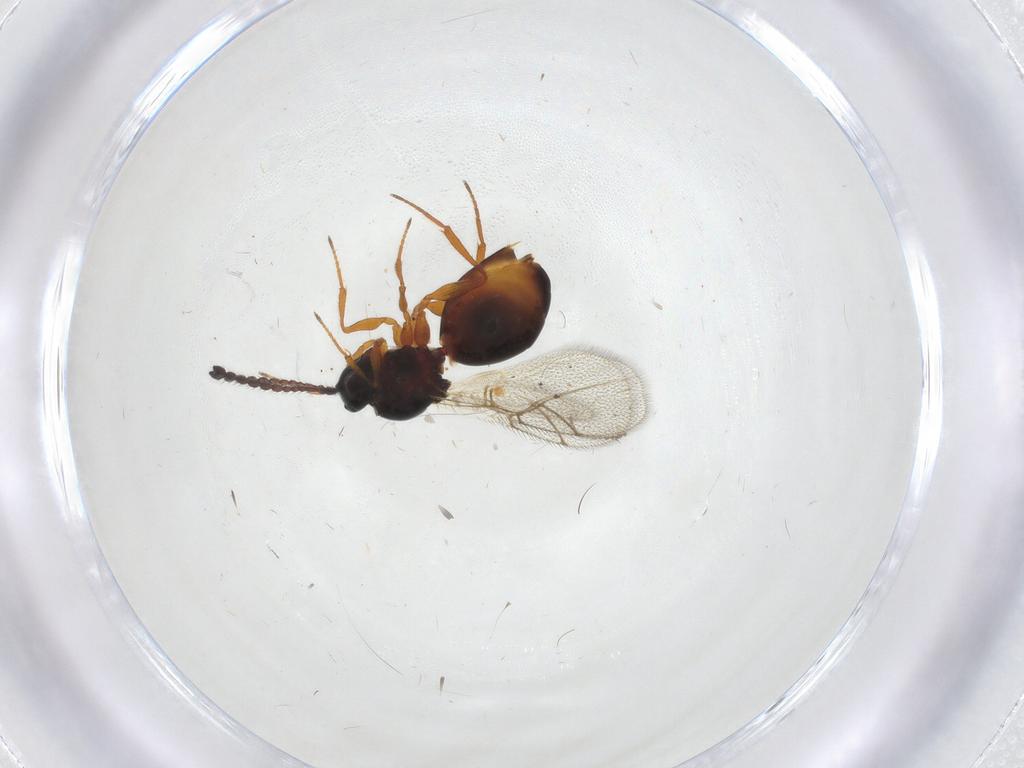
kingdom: Animalia
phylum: Arthropoda
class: Insecta
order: Hymenoptera
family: Figitidae
